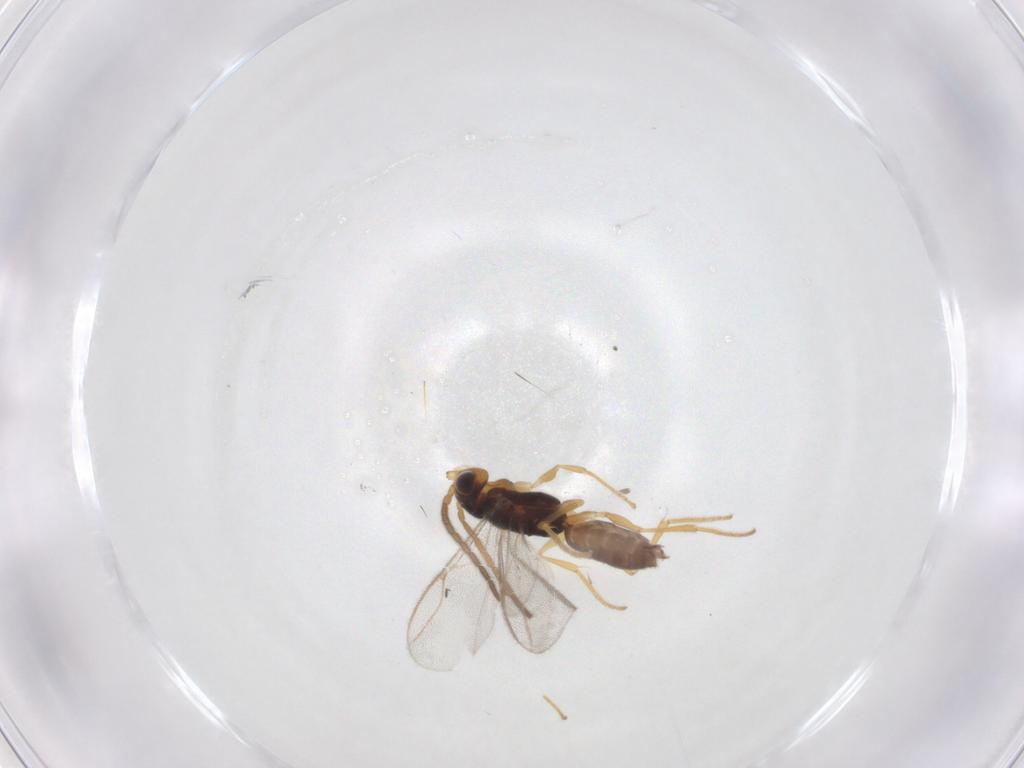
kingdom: Animalia
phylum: Arthropoda
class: Insecta
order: Hymenoptera
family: Dryinidae
